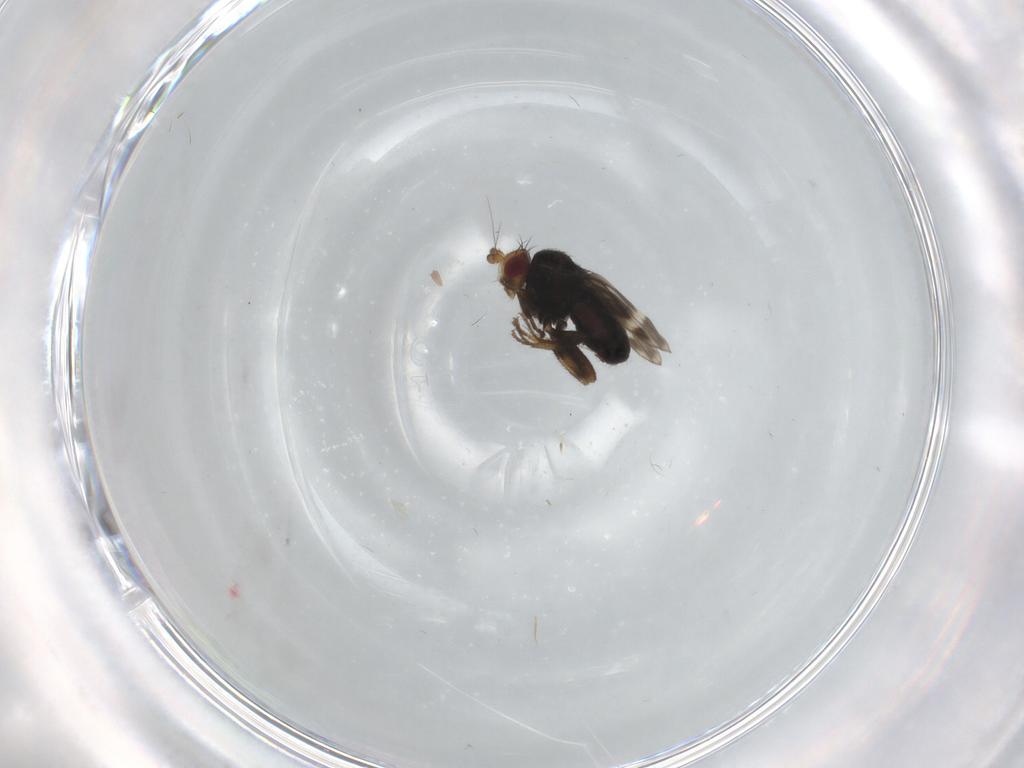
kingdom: Animalia
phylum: Arthropoda
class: Insecta
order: Diptera
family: Sphaeroceridae
